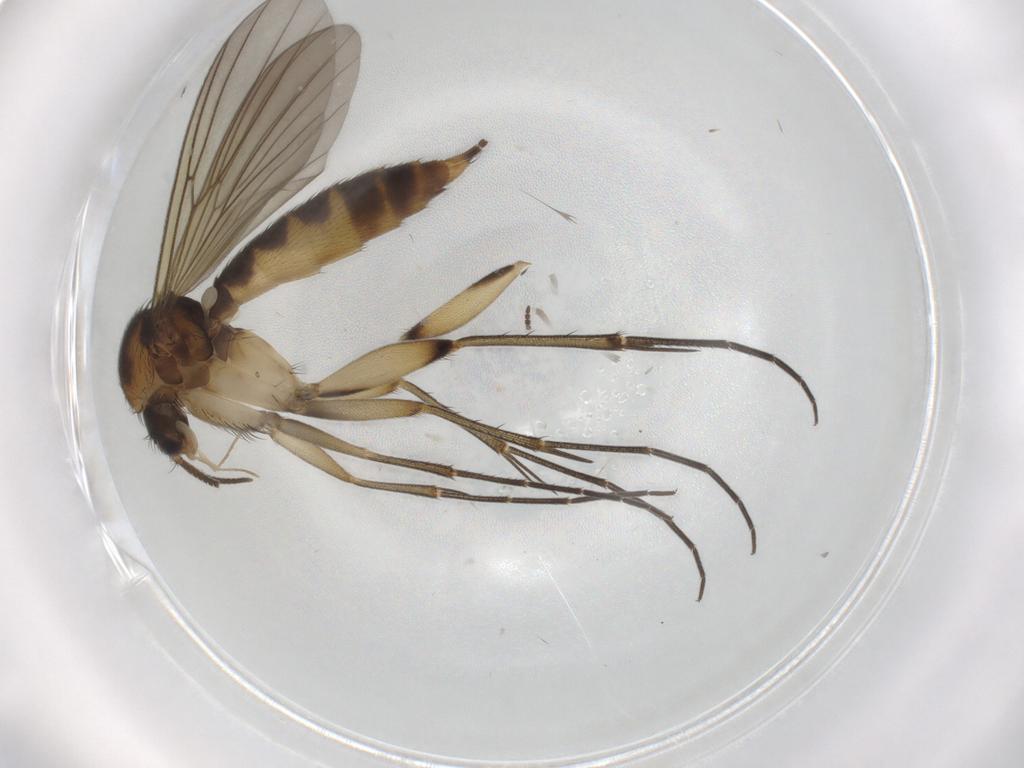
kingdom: Animalia
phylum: Arthropoda
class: Insecta
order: Diptera
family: Mycetophilidae
